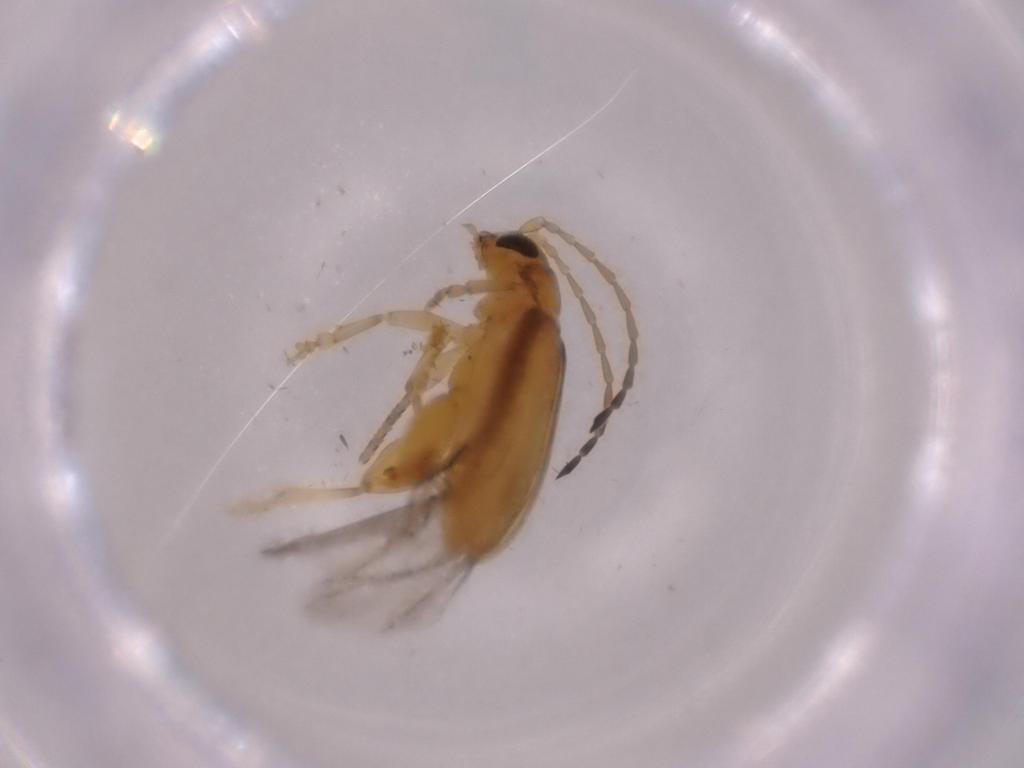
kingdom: Animalia
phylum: Arthropoda
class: Insecta
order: Coleoptera
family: Chrysomelidae
